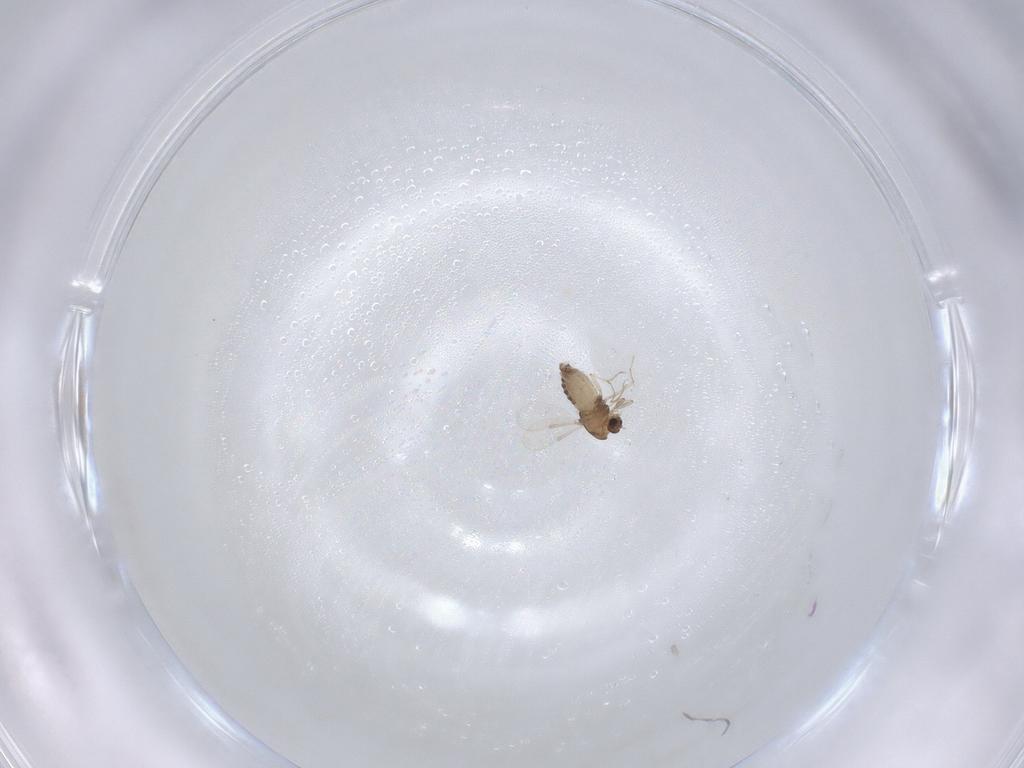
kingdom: Animalia
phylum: Arthropoda
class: Insecta
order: Diptera
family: Chironomidae
